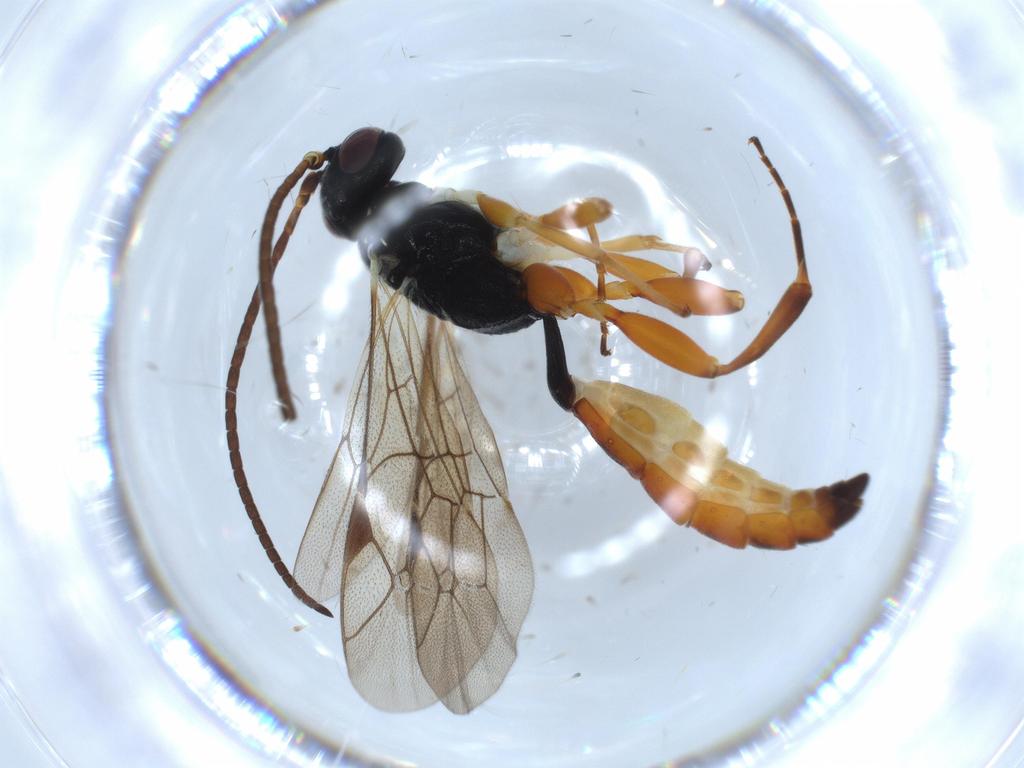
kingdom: Animalia
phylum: Arthropoda
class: Insecta
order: Hymenoptera
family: Ichneumonidae
